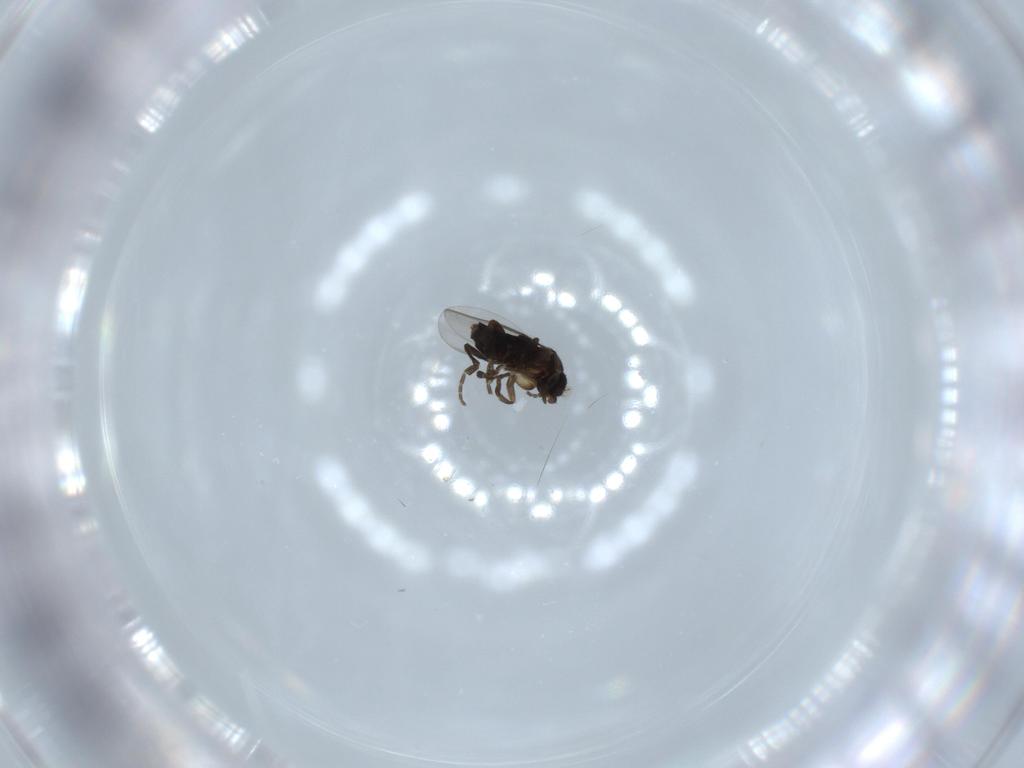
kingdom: Animalia
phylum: Arthropoda
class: Insecta
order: Diptera
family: Phoridae
